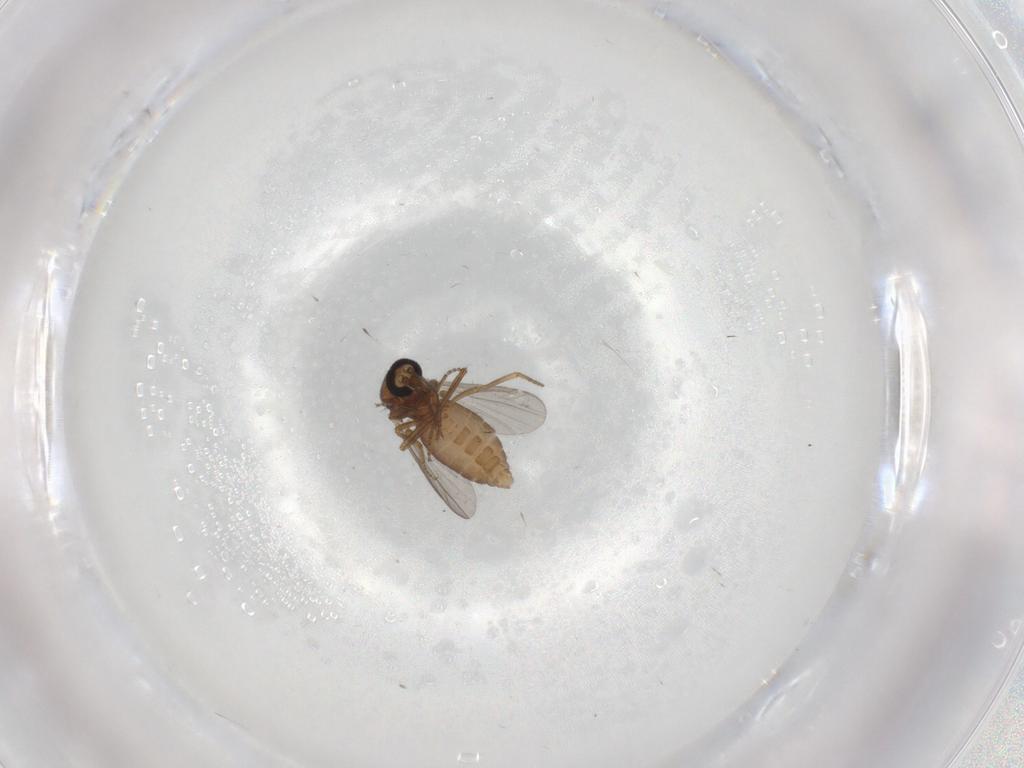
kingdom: Animalia
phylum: Arthropoda
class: Insecta
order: Diptera
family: Ceratopogonidae
